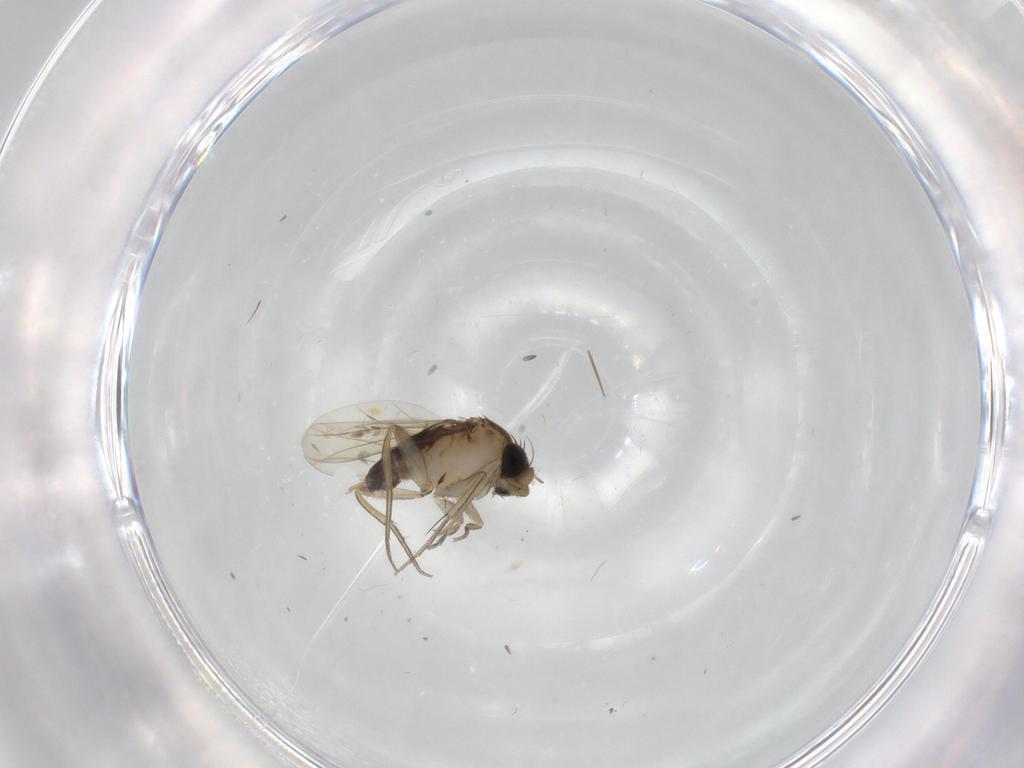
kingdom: Animalia
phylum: Arthropoda
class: Insecta
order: Diptera
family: Phoridae
